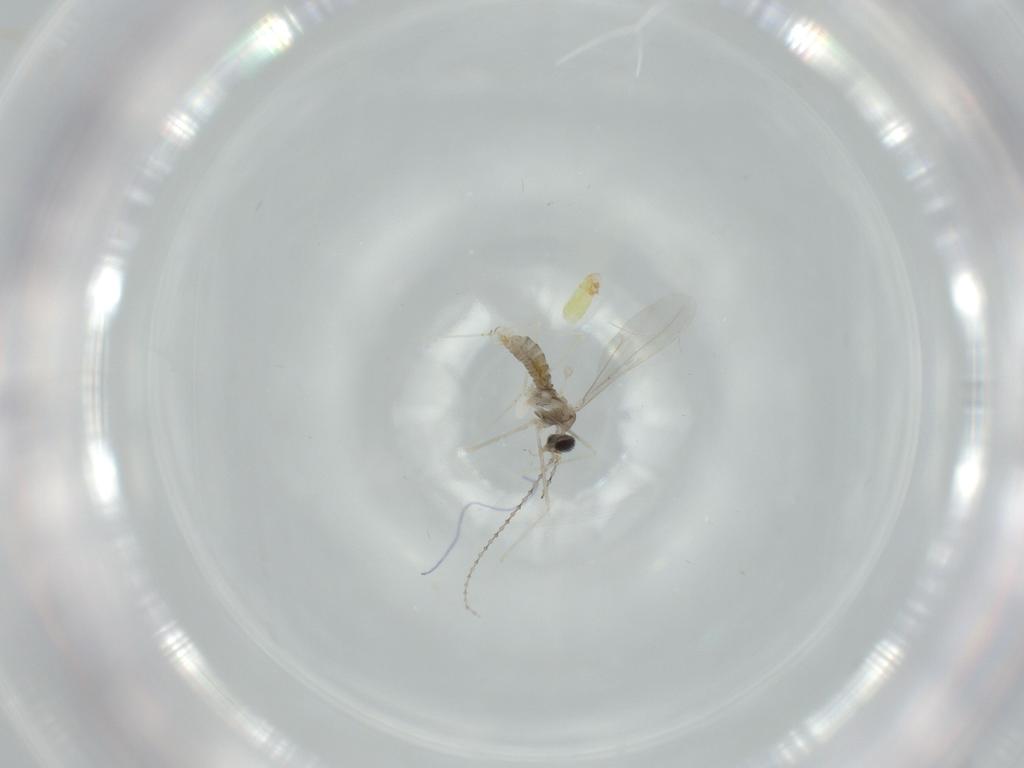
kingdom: Animalia
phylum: Arthropoda
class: Insecta
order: Diptera
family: Cecidomyiidae
